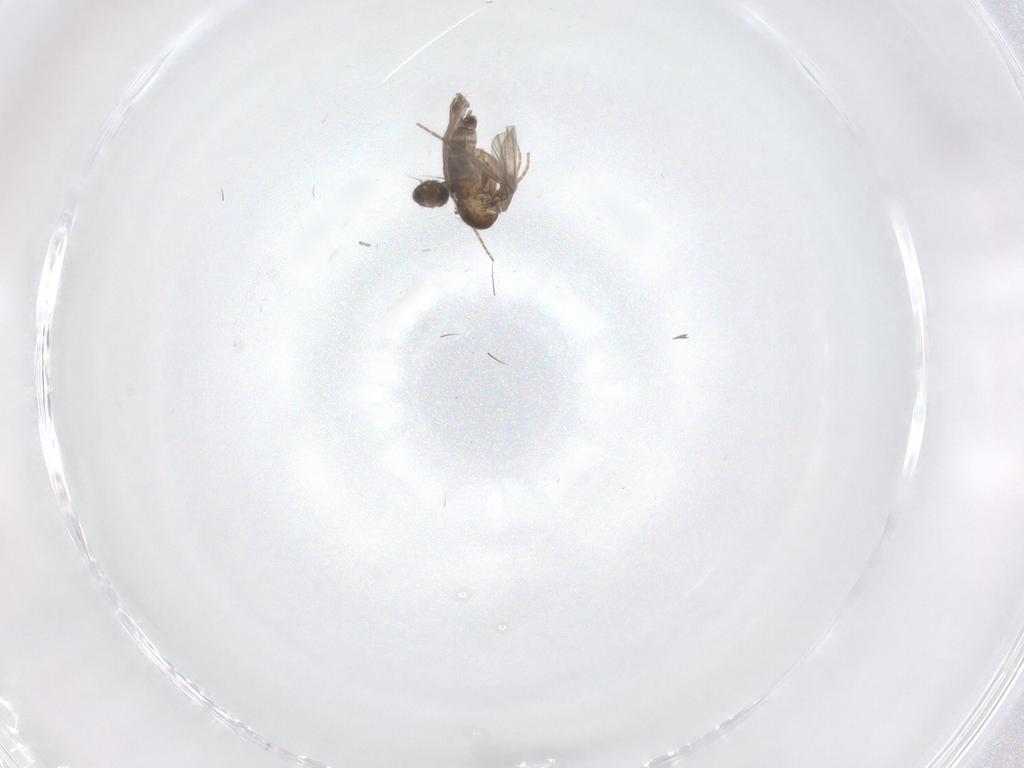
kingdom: Animalia
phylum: Arthropoda
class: Insecta
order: Diptera
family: Phoridae
